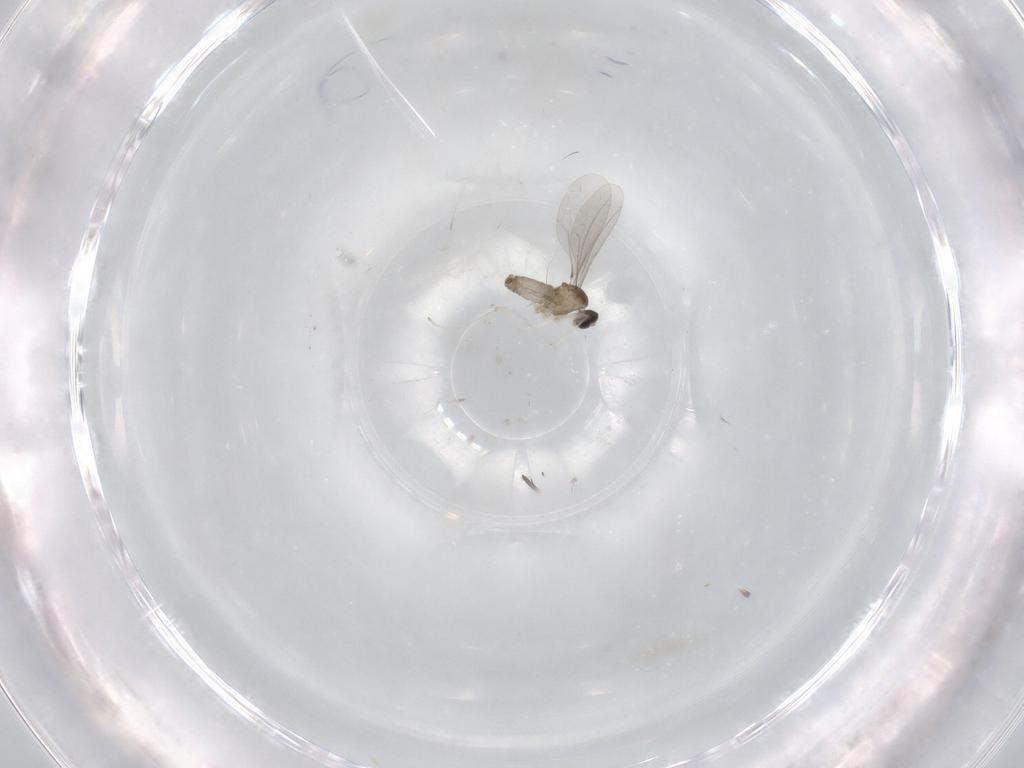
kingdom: Animalia
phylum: Arthropoda
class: Insecta
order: Diptera
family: Cecidomyiidae
